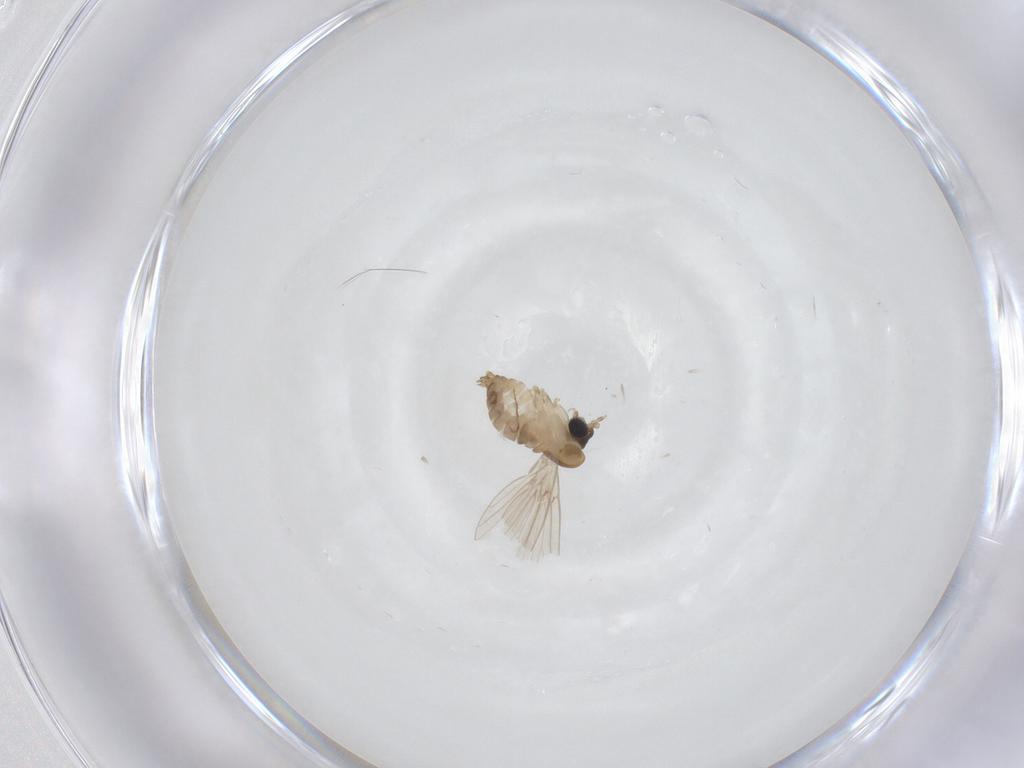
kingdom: Animalia
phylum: Arthropoda
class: Insecta
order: Diptera
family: Psychodidae
